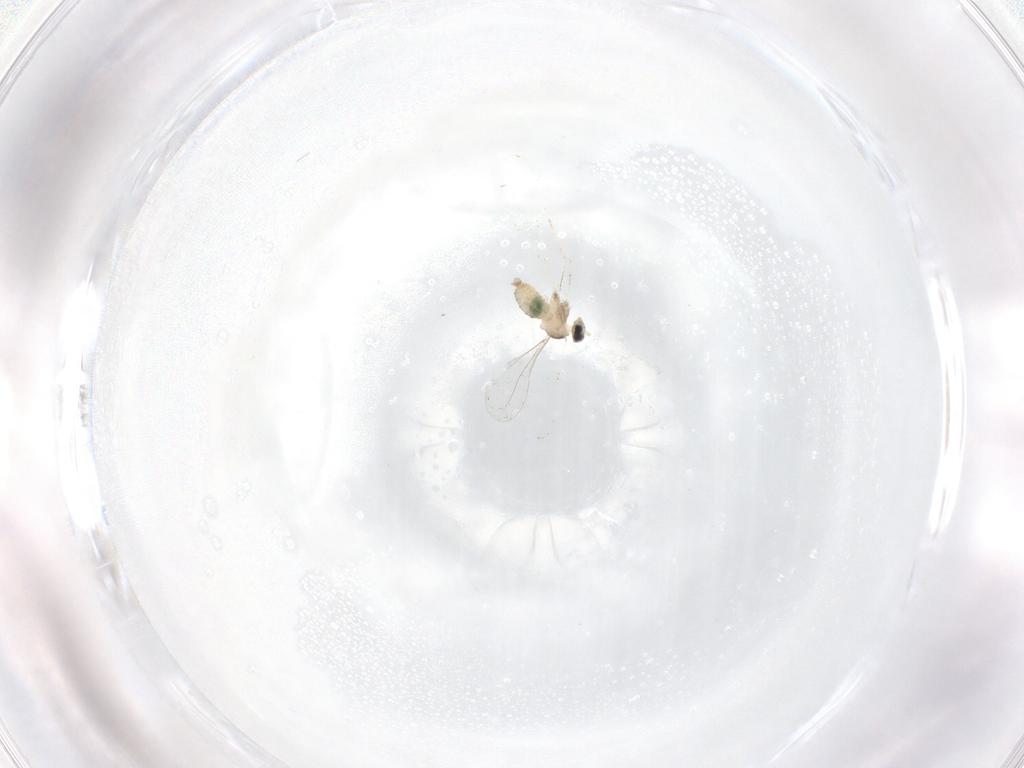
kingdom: Animalia
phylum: Arthropoda
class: Insecta
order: Diptera
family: Cecidomyiidae
